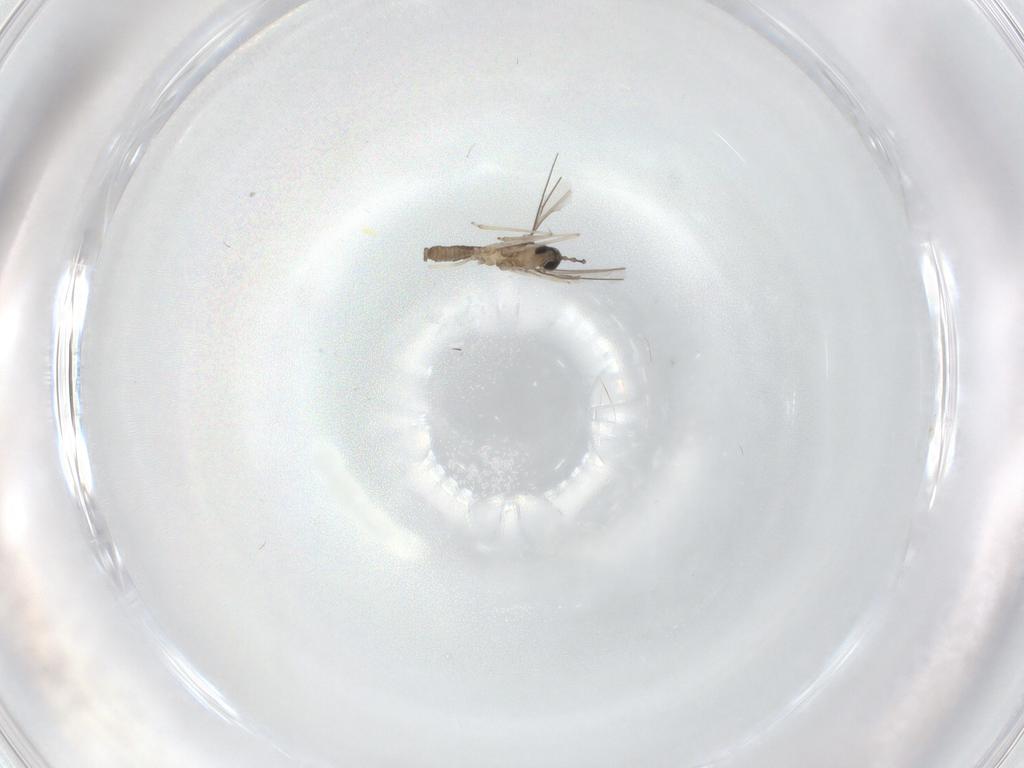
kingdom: Animalia
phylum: Arthropoda
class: Insecta
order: Diptera
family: Cecidomyiidae
